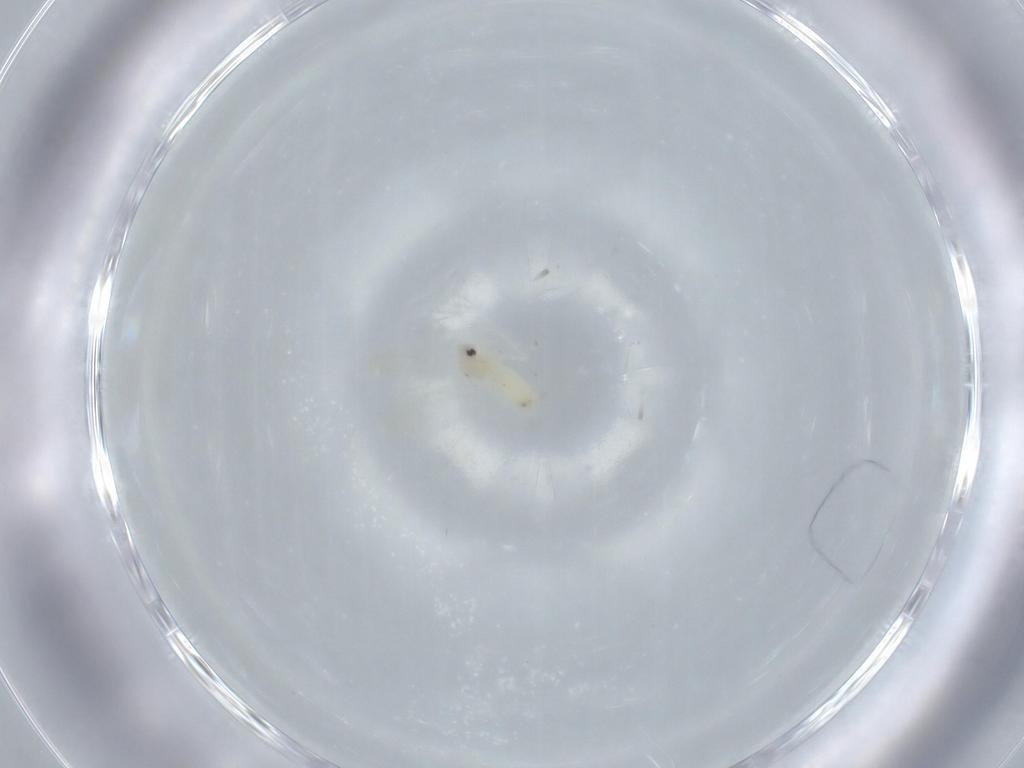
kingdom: Animalia
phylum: Arthropoda
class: Insecta
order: Hemiptera
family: Aleyrodidae
